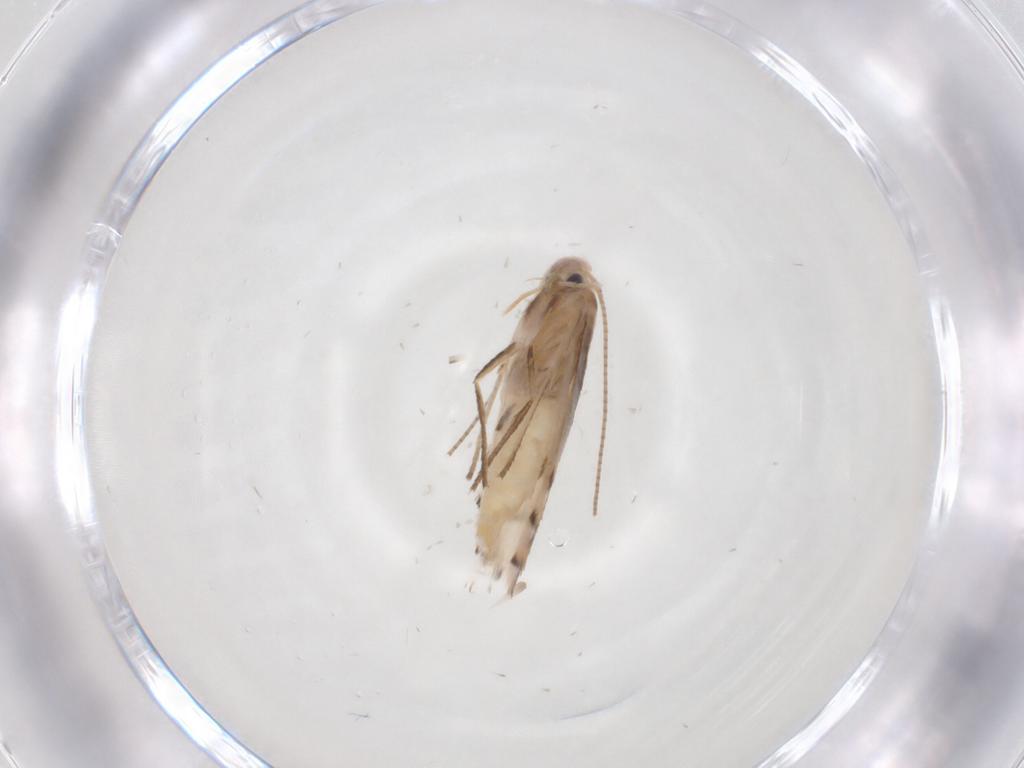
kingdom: Animalia
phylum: Arthropoda
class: Insecta
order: Lepidoptera
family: Gracillariidae
